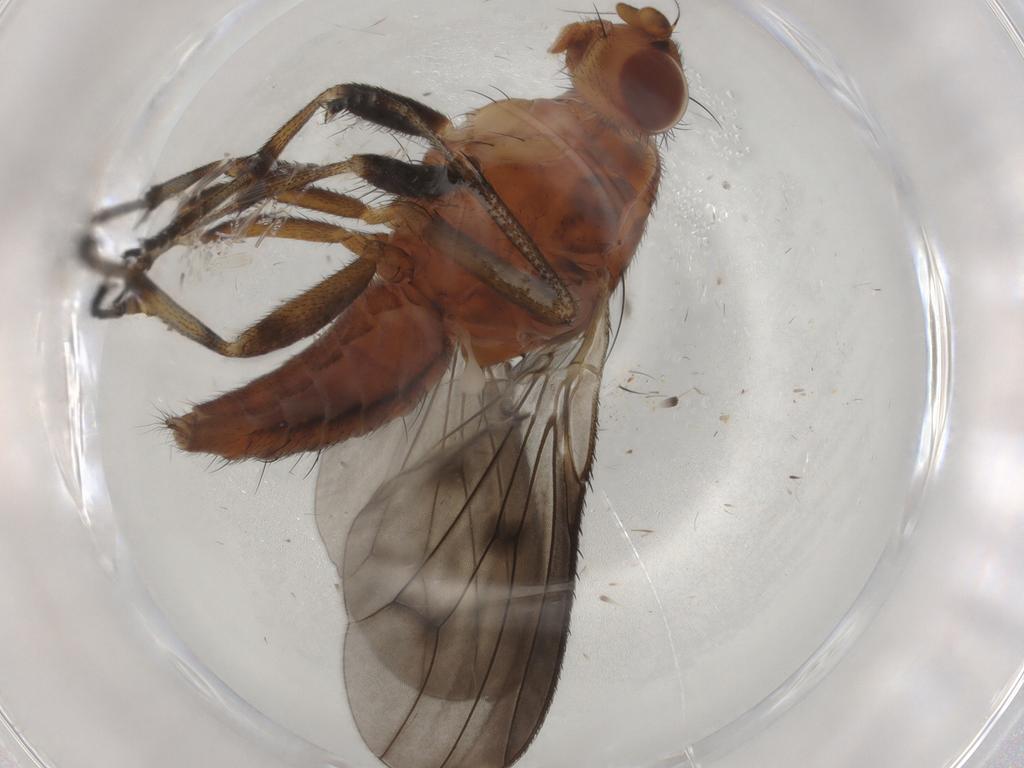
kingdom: Animalia
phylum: Arthropoda
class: Insecta
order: Diptera
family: Heleomyzidae
